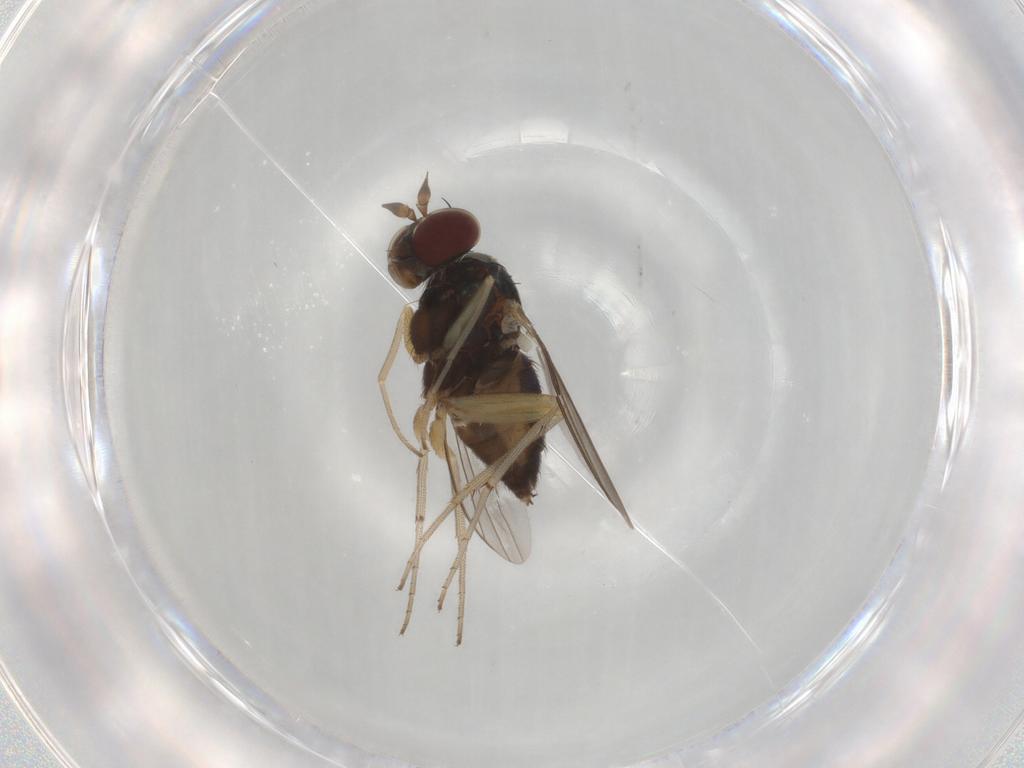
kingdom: Animalia
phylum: Arthropoda
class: Insecta
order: Diptera
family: Dolichopodidae
